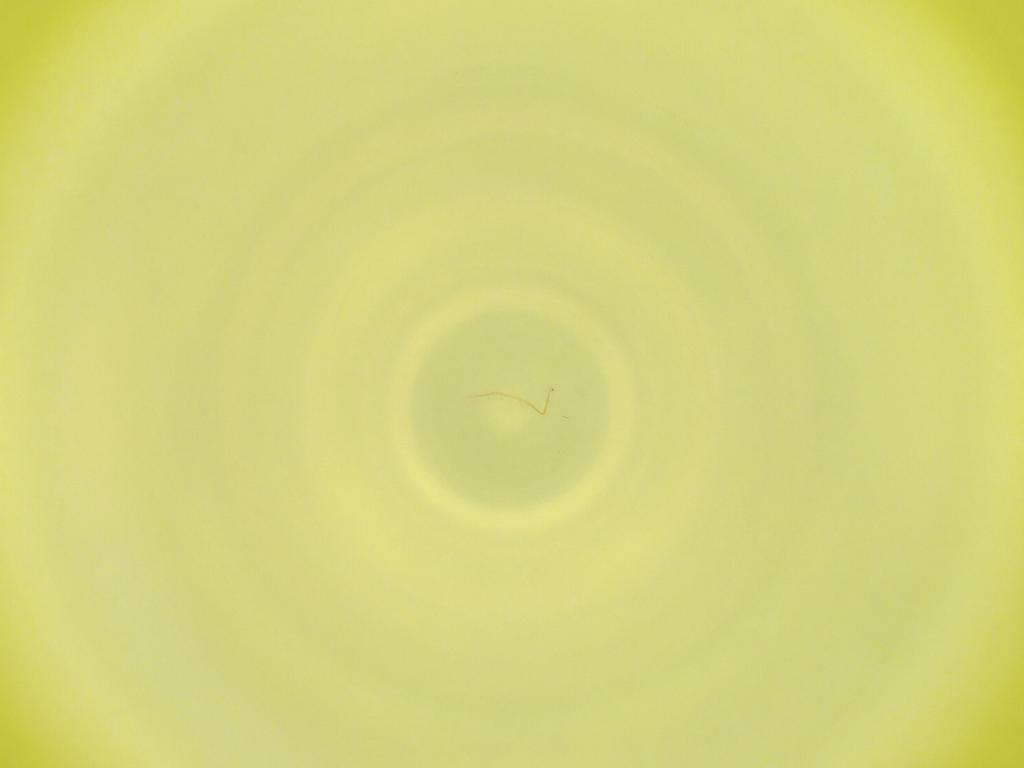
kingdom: Animalia
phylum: Arthropoda
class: Insecta
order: Diptera
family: Cecidomyiidae
